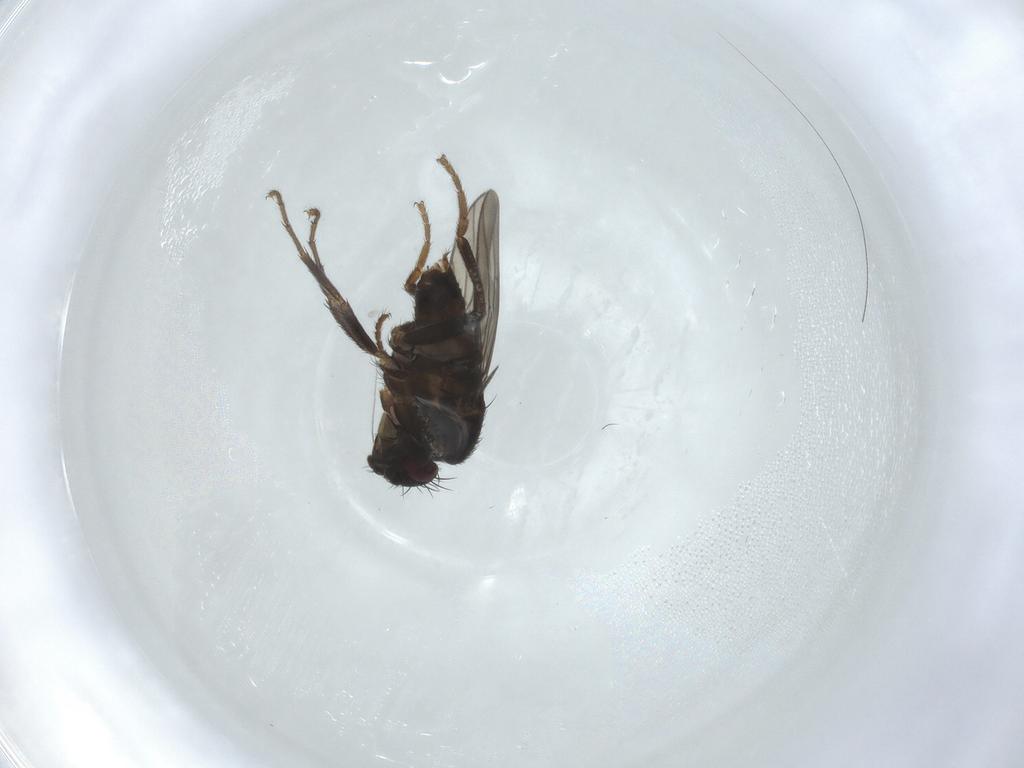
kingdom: Animalia
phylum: Arthropoda
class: Insecta
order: Diptera
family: Sphaeroceridae
